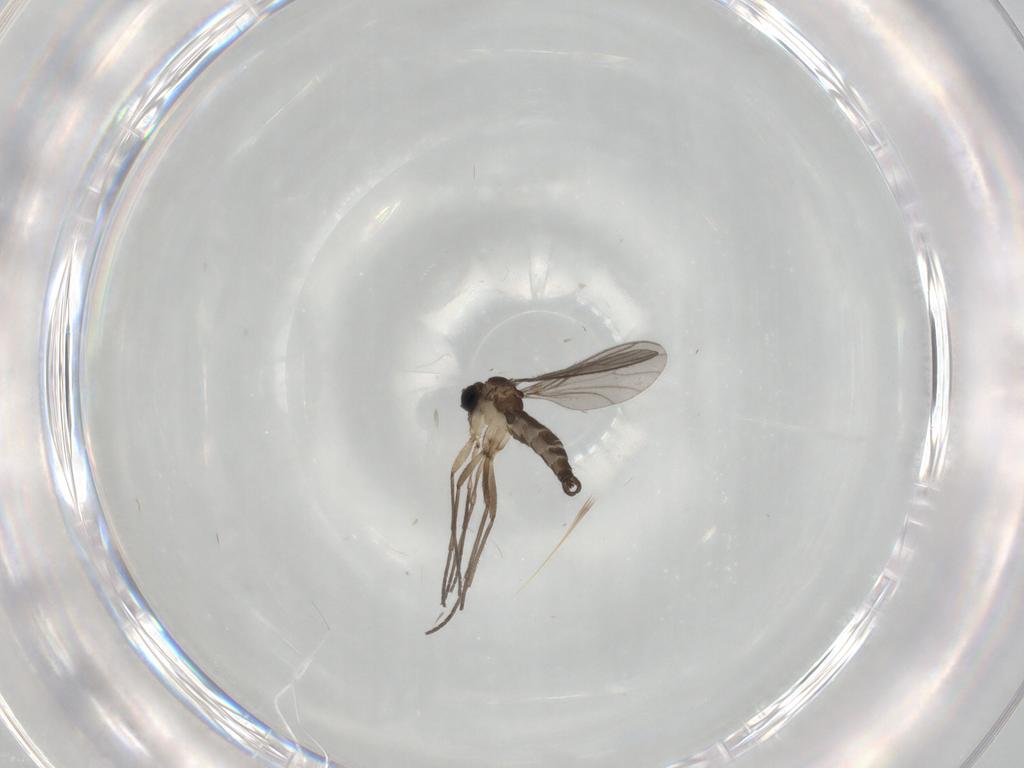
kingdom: Animalia
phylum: Arthropoda
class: Insecta
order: Diptera
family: Sciaridae
